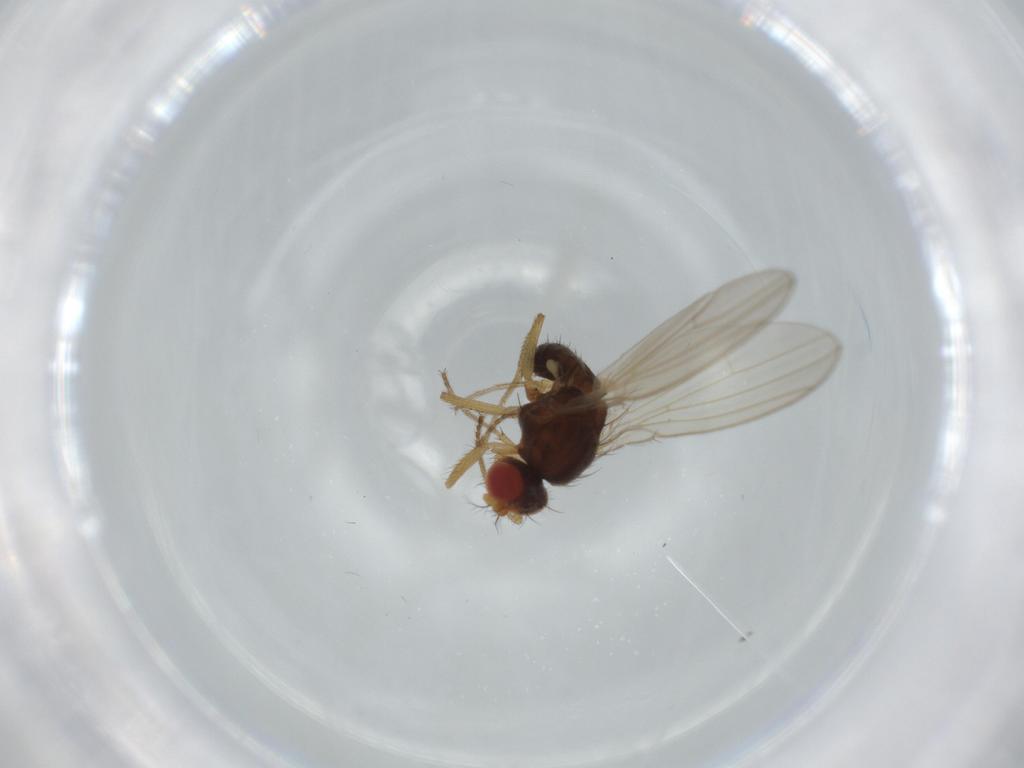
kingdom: Animalia
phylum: Arthropoda
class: Insecta
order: Diptera
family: Drosophilidae
